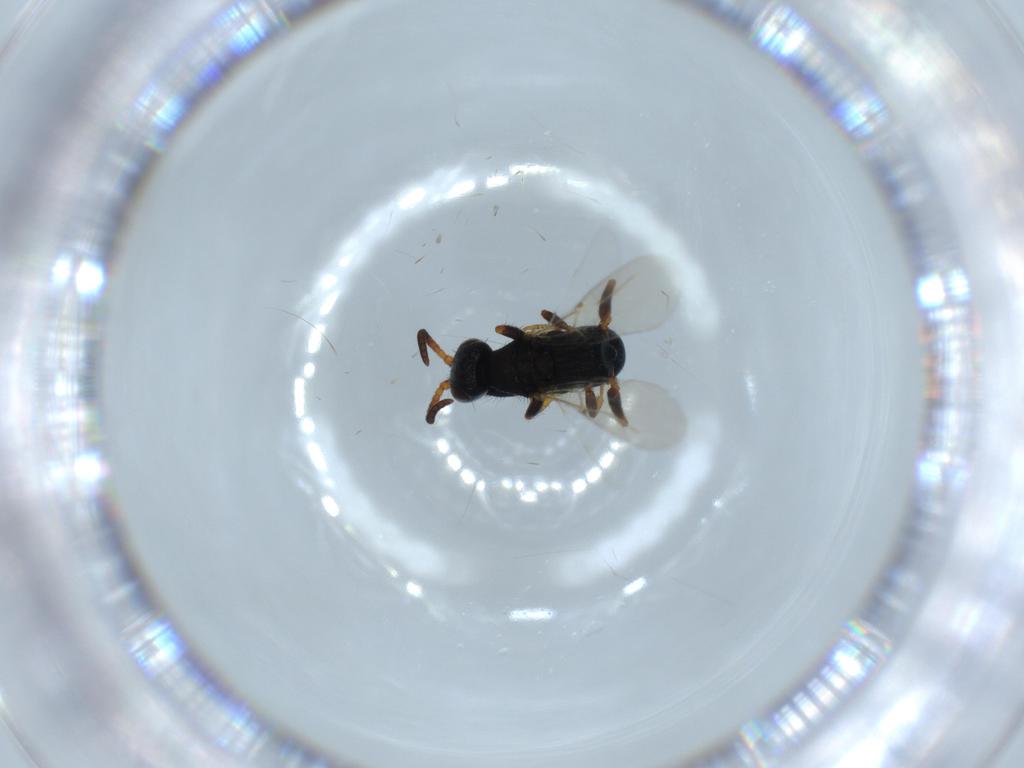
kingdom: Animalia
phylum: Arthropoda
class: Insecta
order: Hymenoptera
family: Bethylidae
